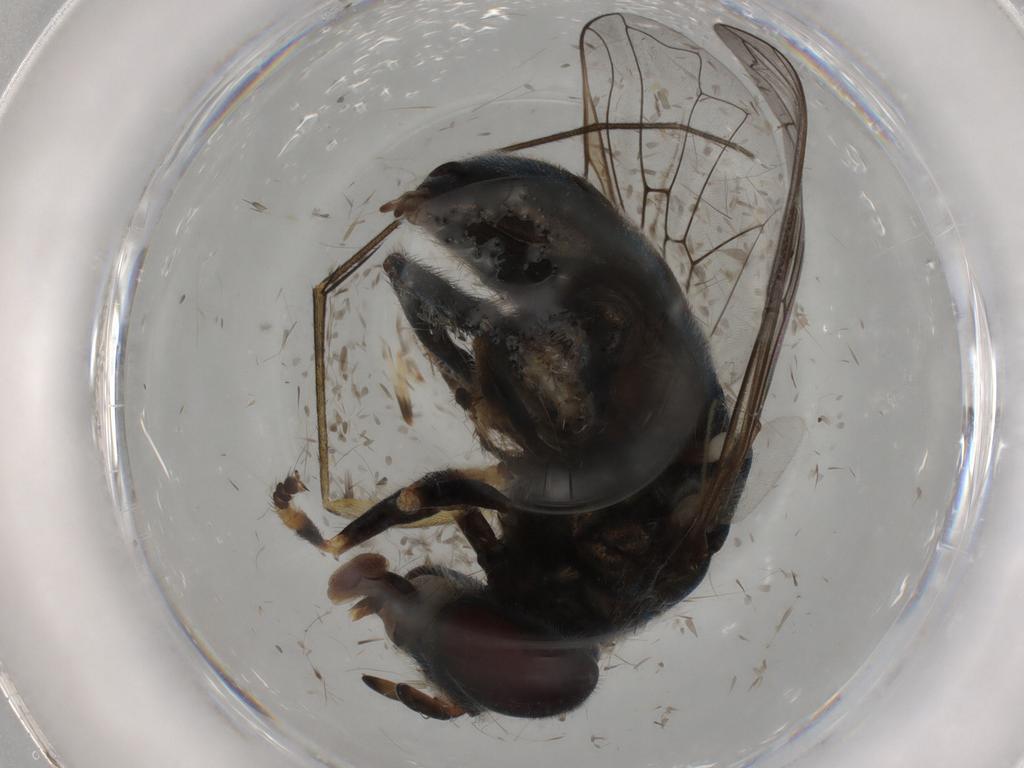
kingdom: Animalia
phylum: Arthropoda
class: Insecta
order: Diptera
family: Syrphidae
